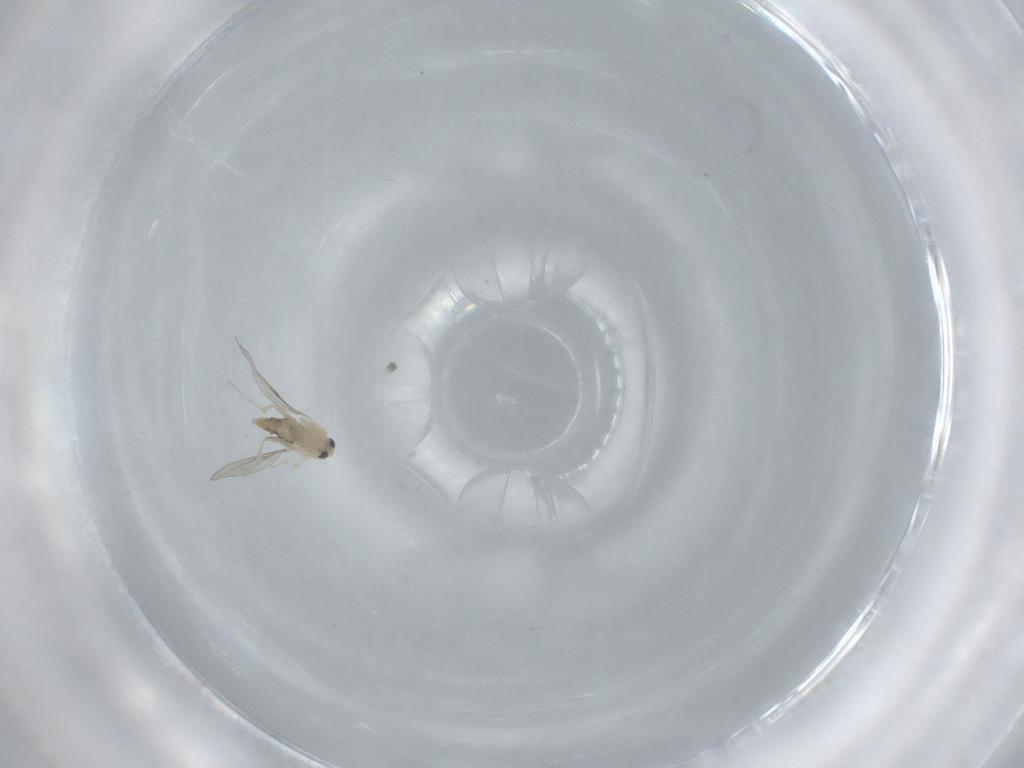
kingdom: Animalia
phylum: Arthropoda
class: Insecta
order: Diptera
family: Phoridae
